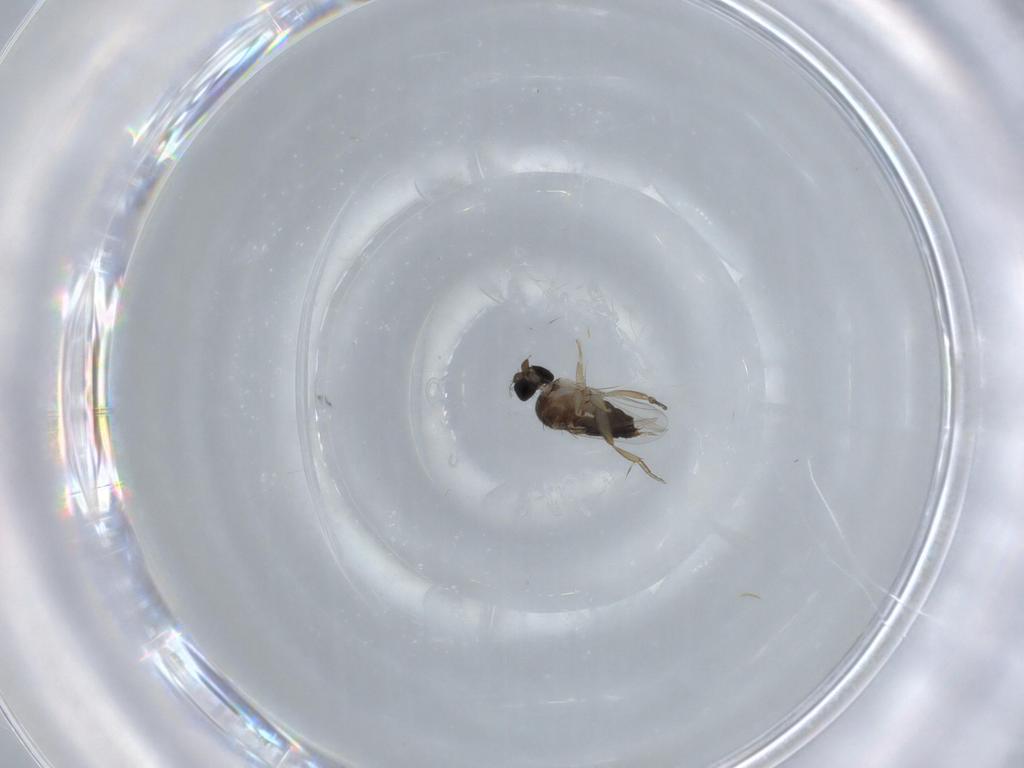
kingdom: Animalia
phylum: Arthropoda
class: Insecta
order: Diptera
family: Phoridae
